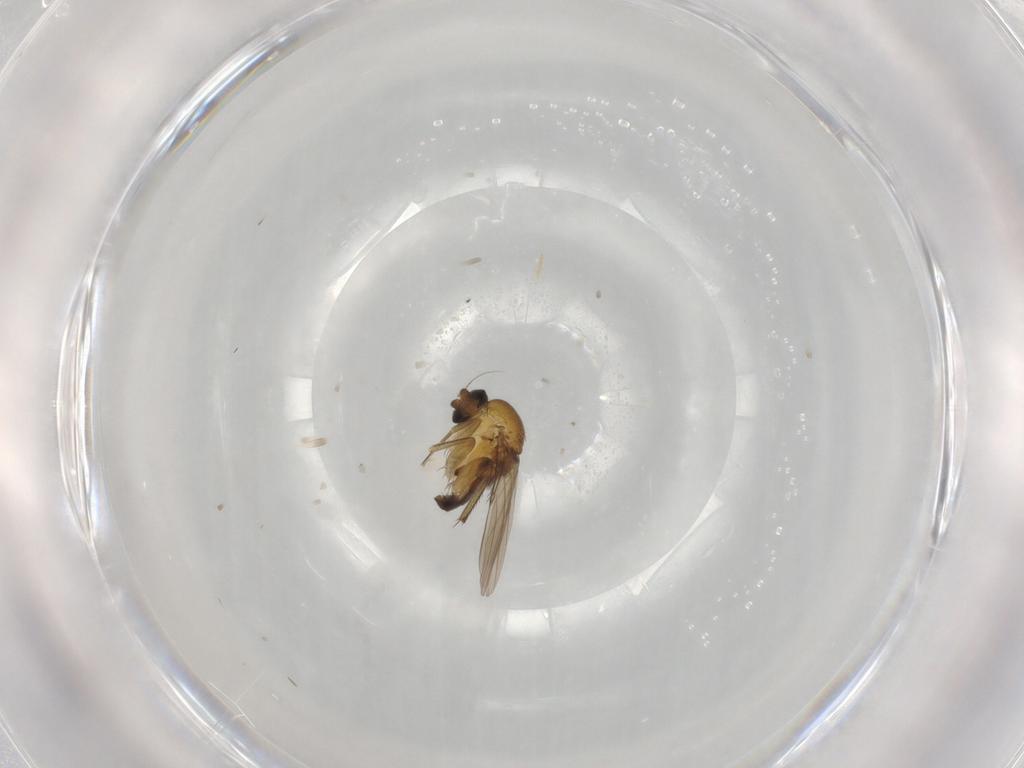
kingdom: Animalia
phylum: Arthropoda
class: Insecta
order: Diptera
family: Phoridae
